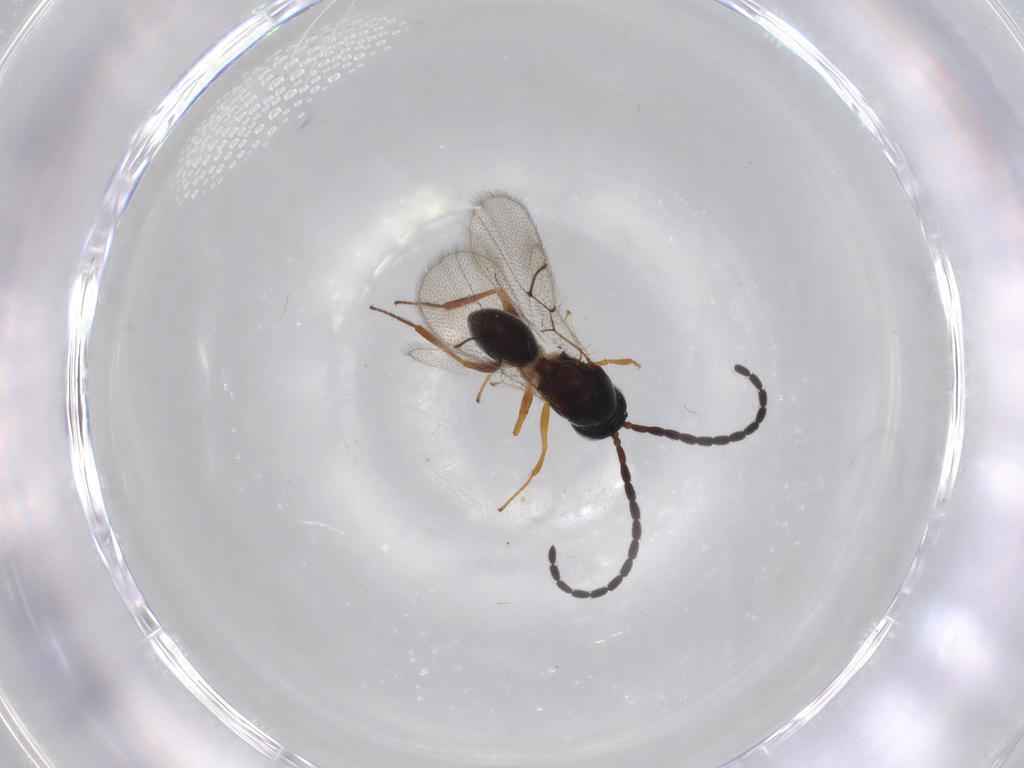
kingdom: Animalia
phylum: Arthropoda
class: Insecta
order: Hymenoptera
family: Figitidae
